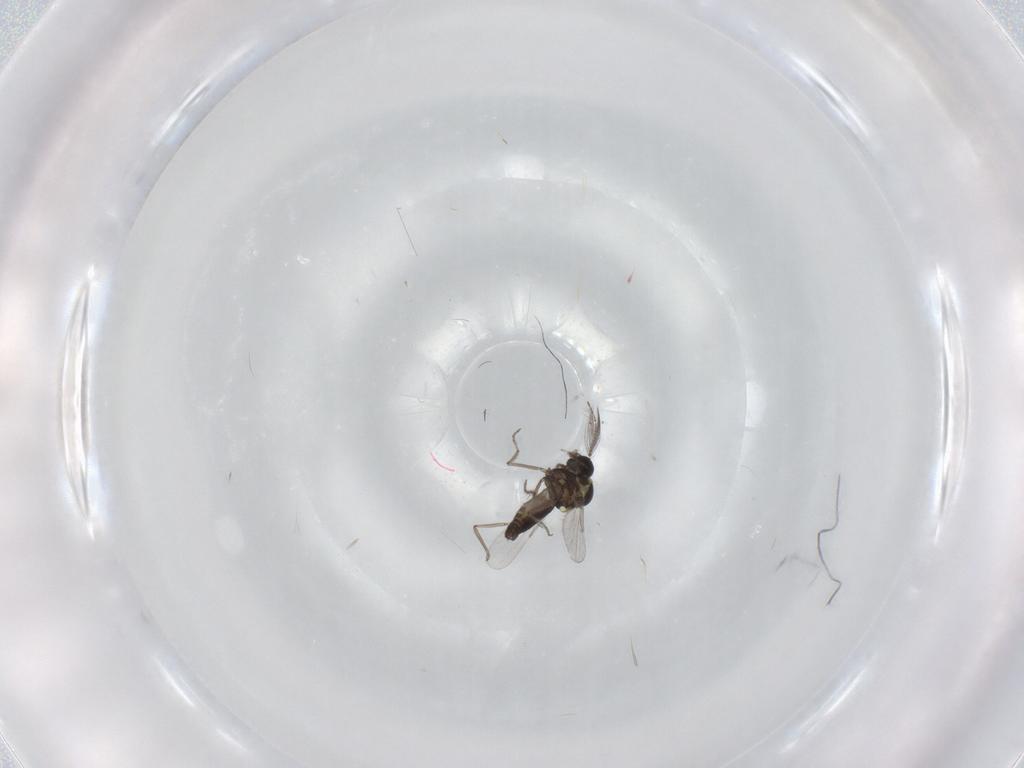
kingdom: Animalia
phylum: Arthropoda
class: Insecta
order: Diptera
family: Ceratopogonidae
